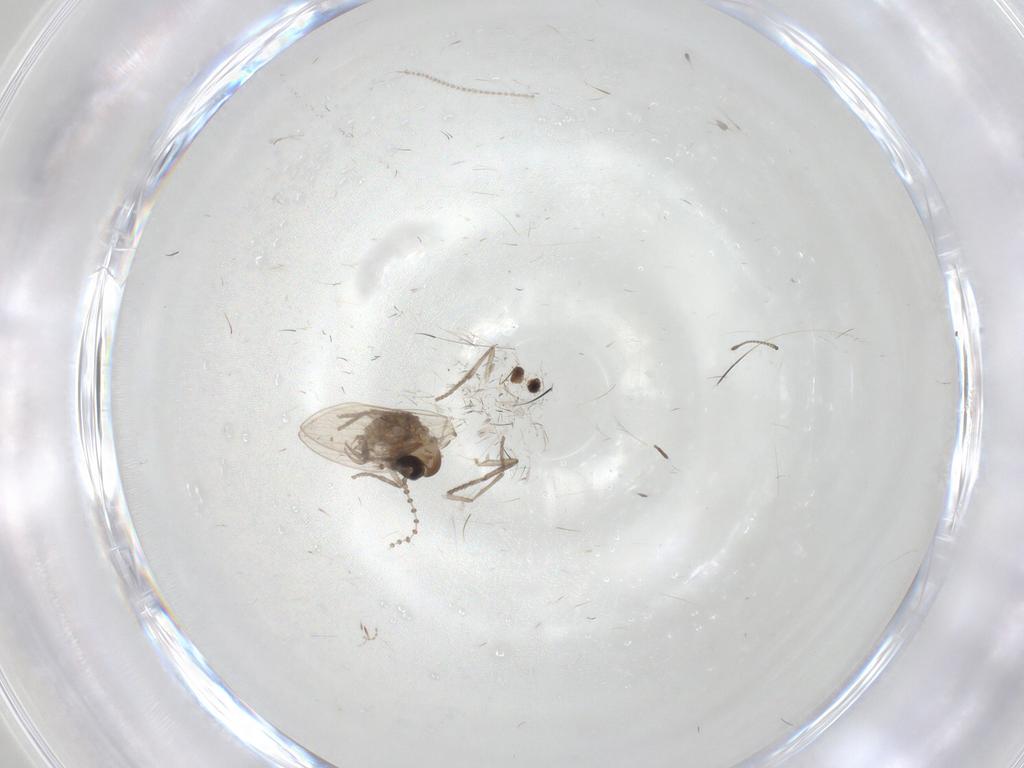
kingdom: Animalia
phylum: Arthropoda
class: Insecta
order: Diptera
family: Psychodidae
